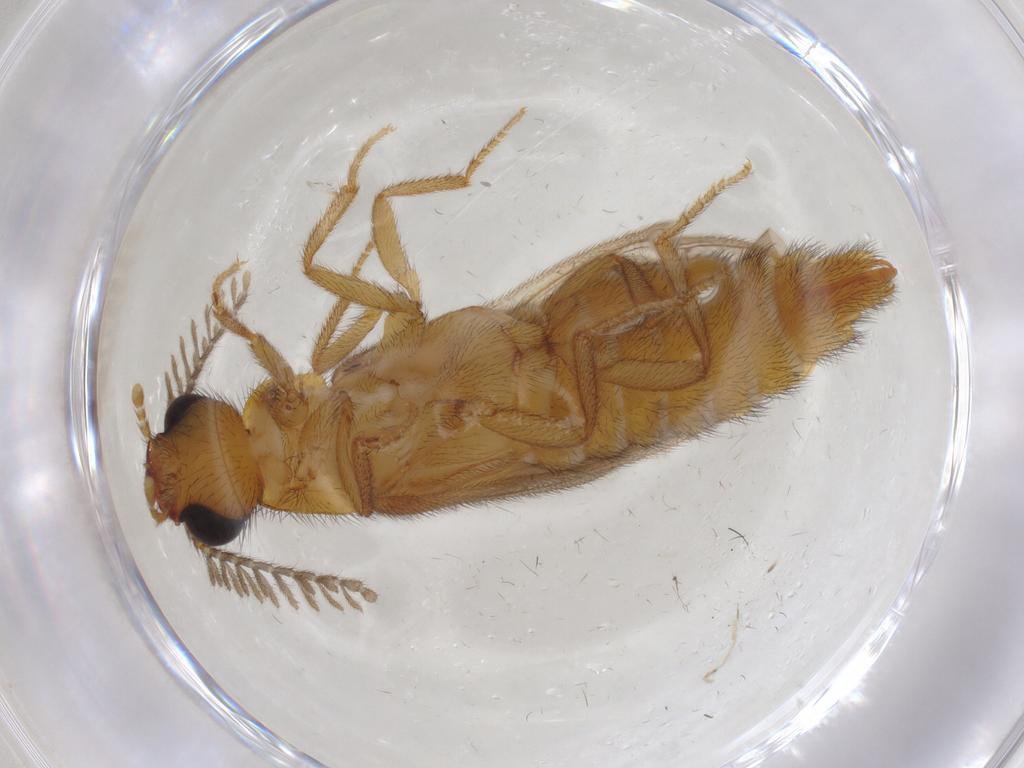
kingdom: Animalia
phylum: Arthropoda
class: Insecta
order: Coleoptera
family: Phengodidae
